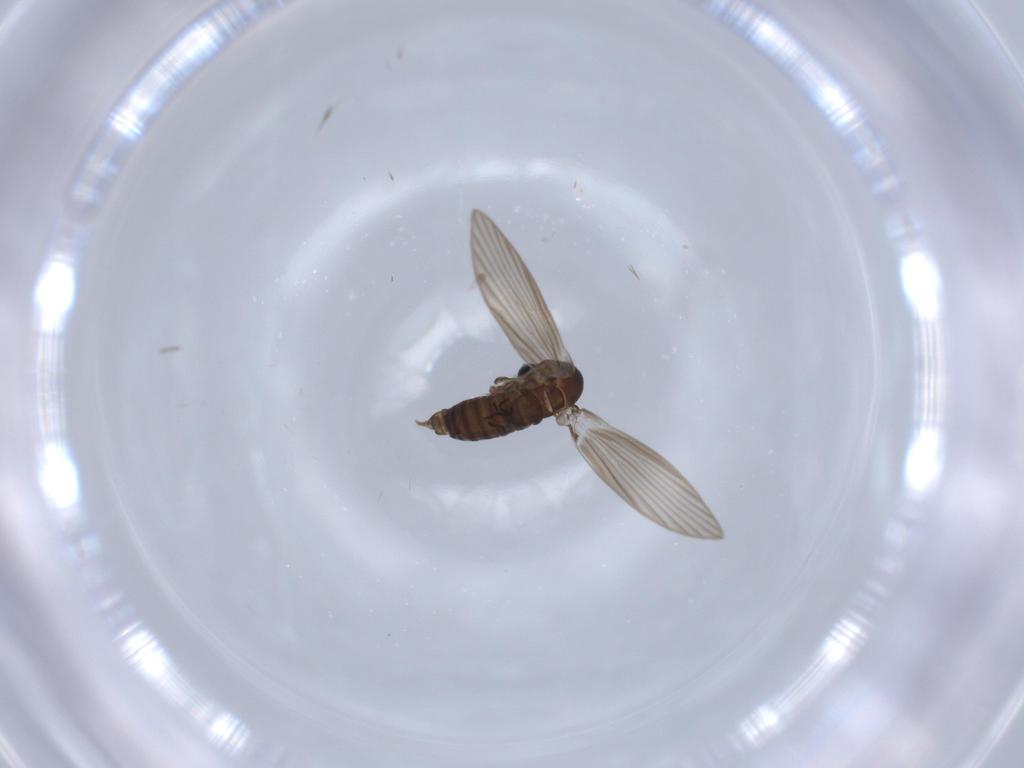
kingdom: Animalia
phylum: Arthropoda
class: Insecta
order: Diptera
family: Psychodidae
